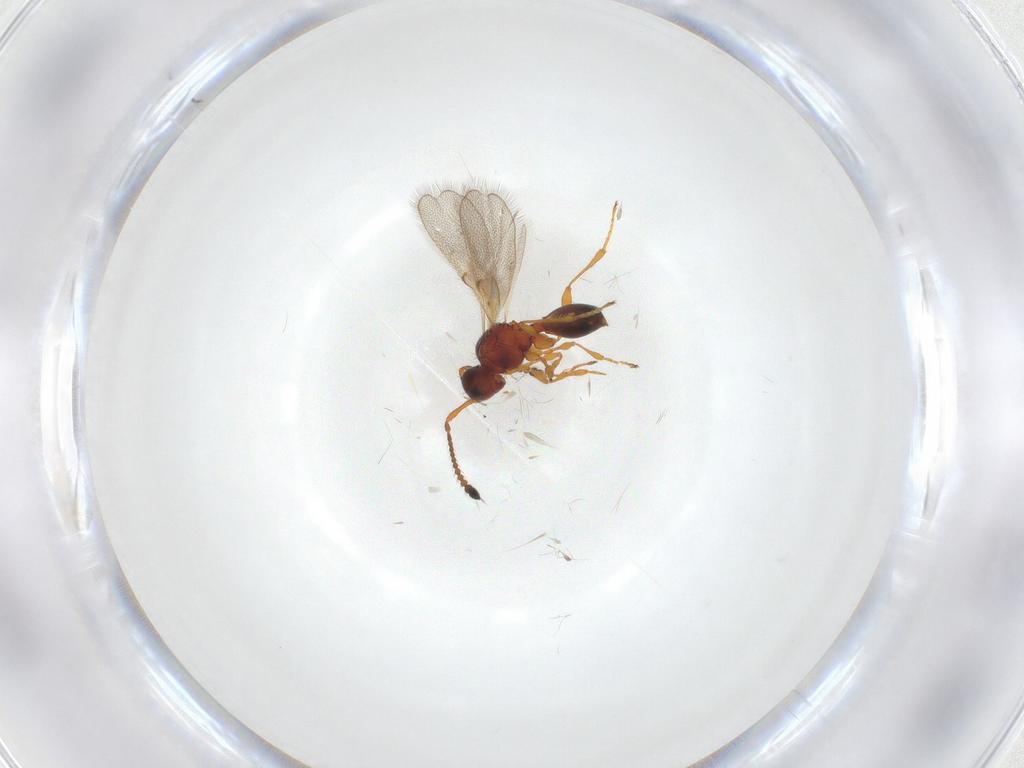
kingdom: Animalia
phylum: Arthropoda
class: Insecta
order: Hymenoptera
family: Diapriidae
